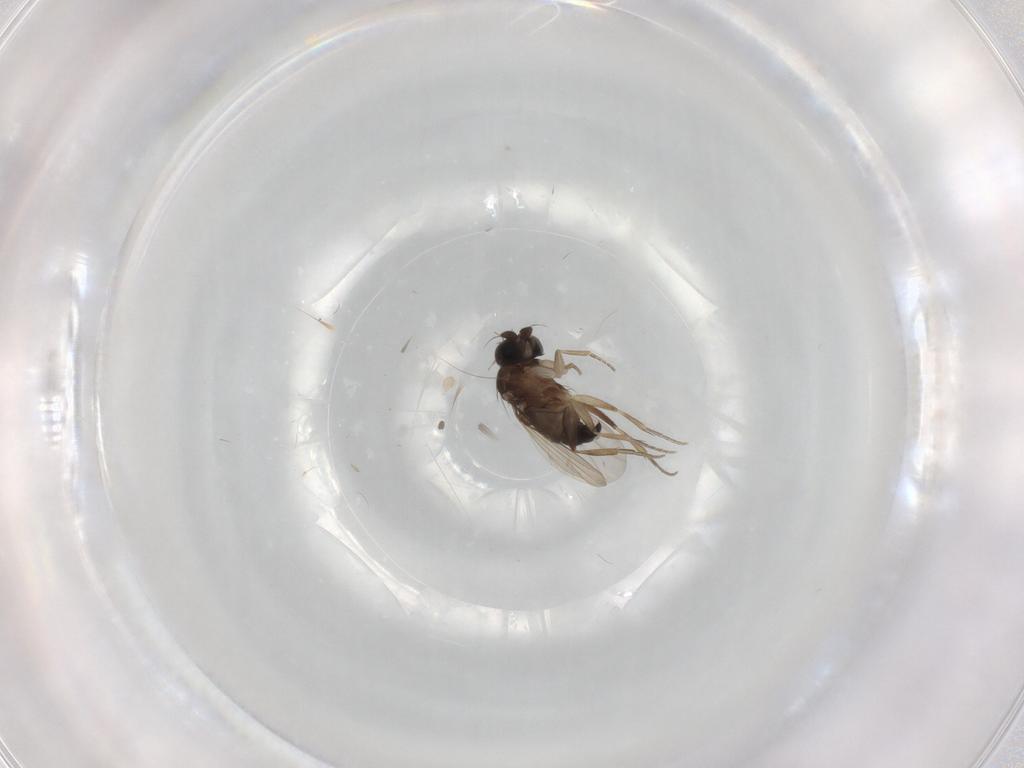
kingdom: Animalia
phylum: Arthropoda
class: Insecta
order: Diptera
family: Phoridae
